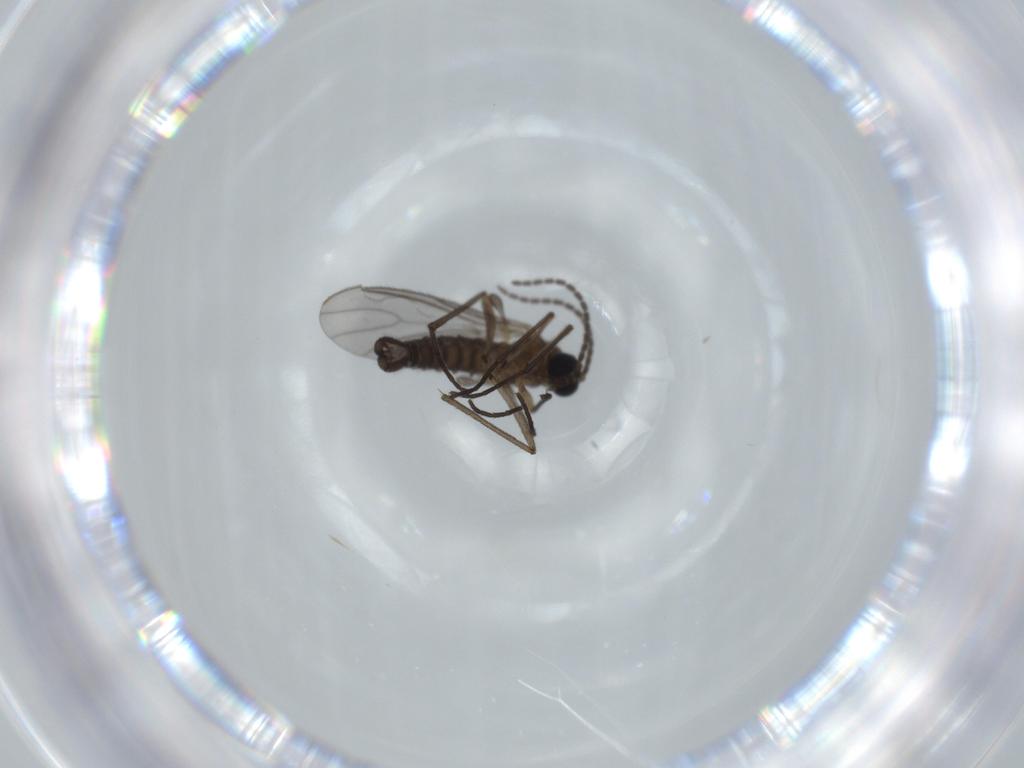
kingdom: Animalia
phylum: Arthropoda
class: Insecta
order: Diptera
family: Sciaridae
